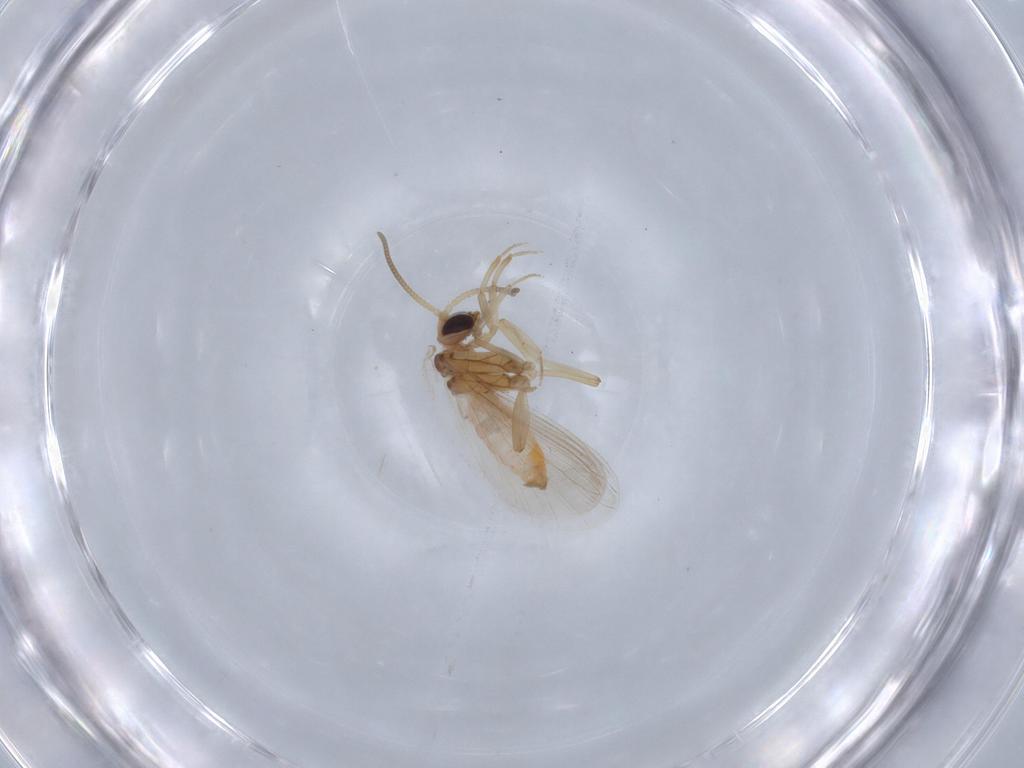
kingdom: Animalia
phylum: Arthropoda
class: Insecta
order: Neuroptera
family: Coniopterygidae
